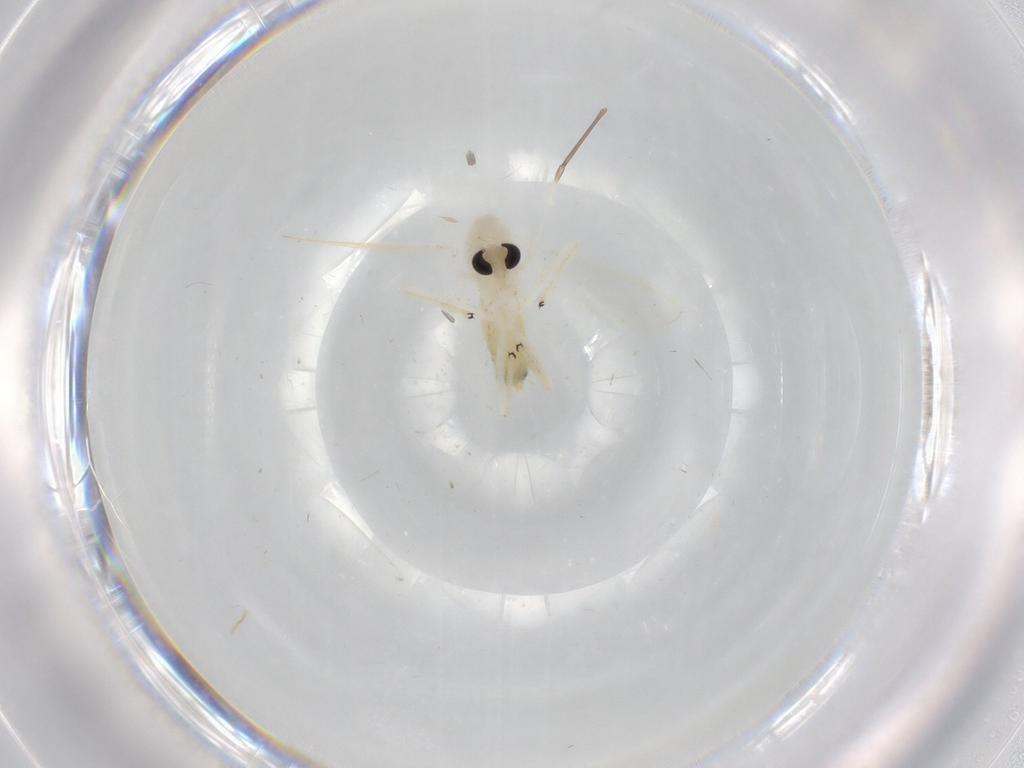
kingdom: Animalia
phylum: Arthropoda
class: Insecta
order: Diptera
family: Chironomidae
